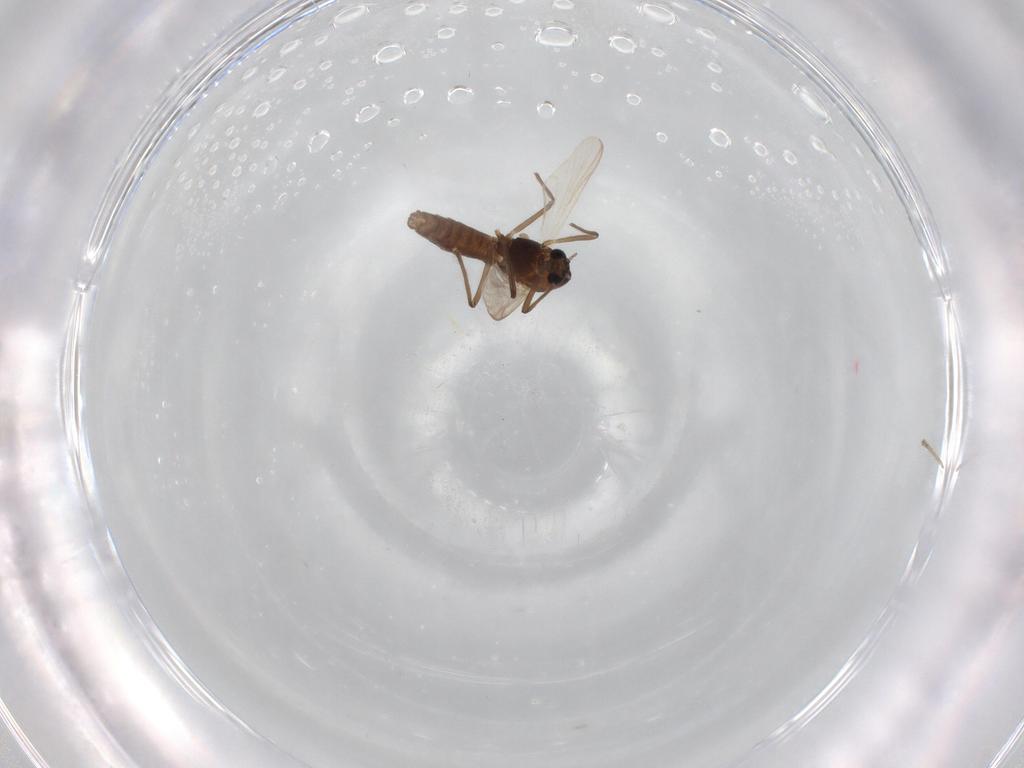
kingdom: Animalia
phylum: Arthropoda
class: Insecta
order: Diptera
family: Chironomidae
